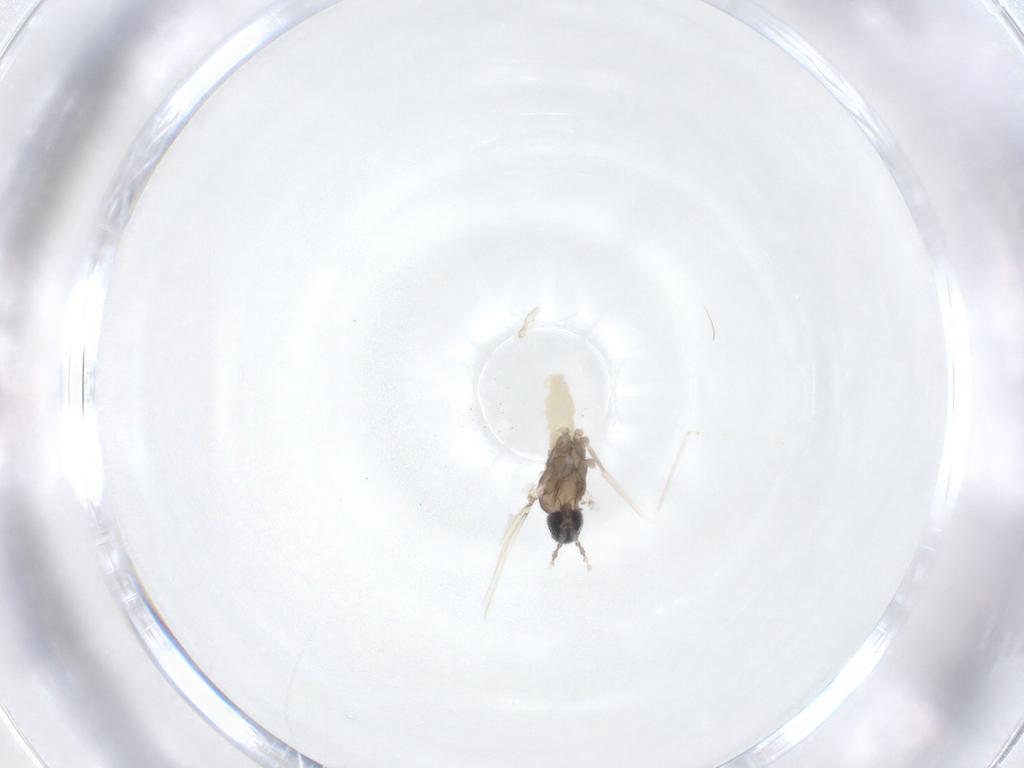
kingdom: Animalia
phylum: Arthropoda
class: Insecta
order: Diptera
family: Cecidomyiidae
